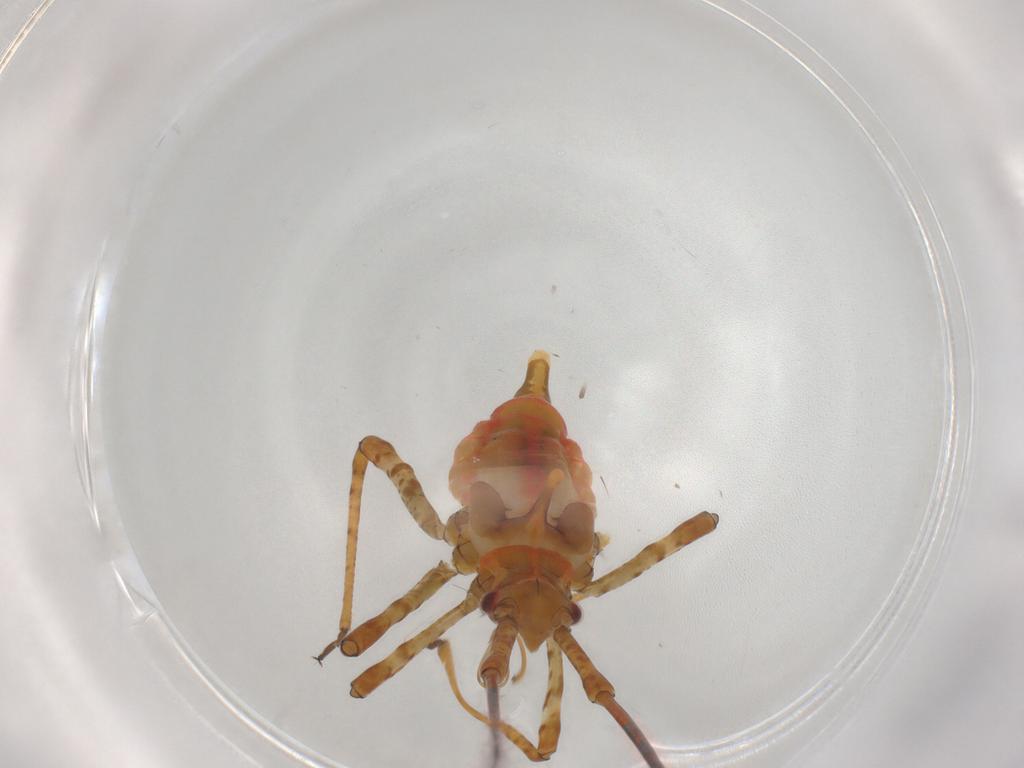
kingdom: Animalia
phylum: Arthropoda
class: Insecta
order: Hemiptera
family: Miridae
